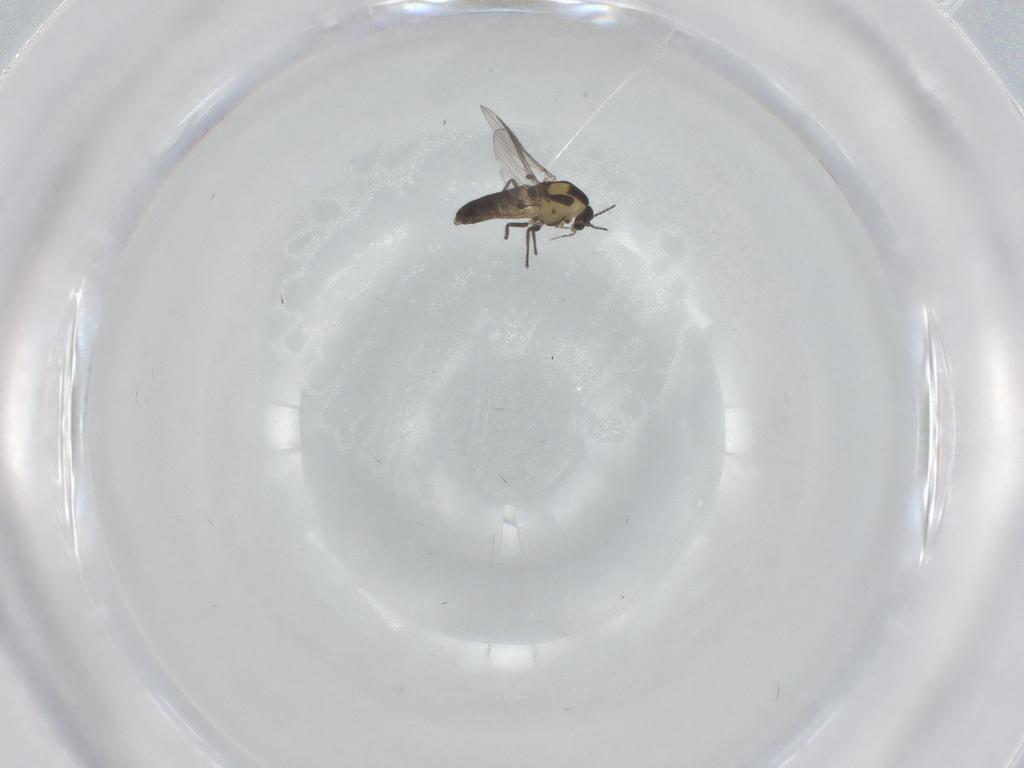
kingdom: Animalia
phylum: Arthropoda
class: Insecta
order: Diptera
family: Chironomidae
